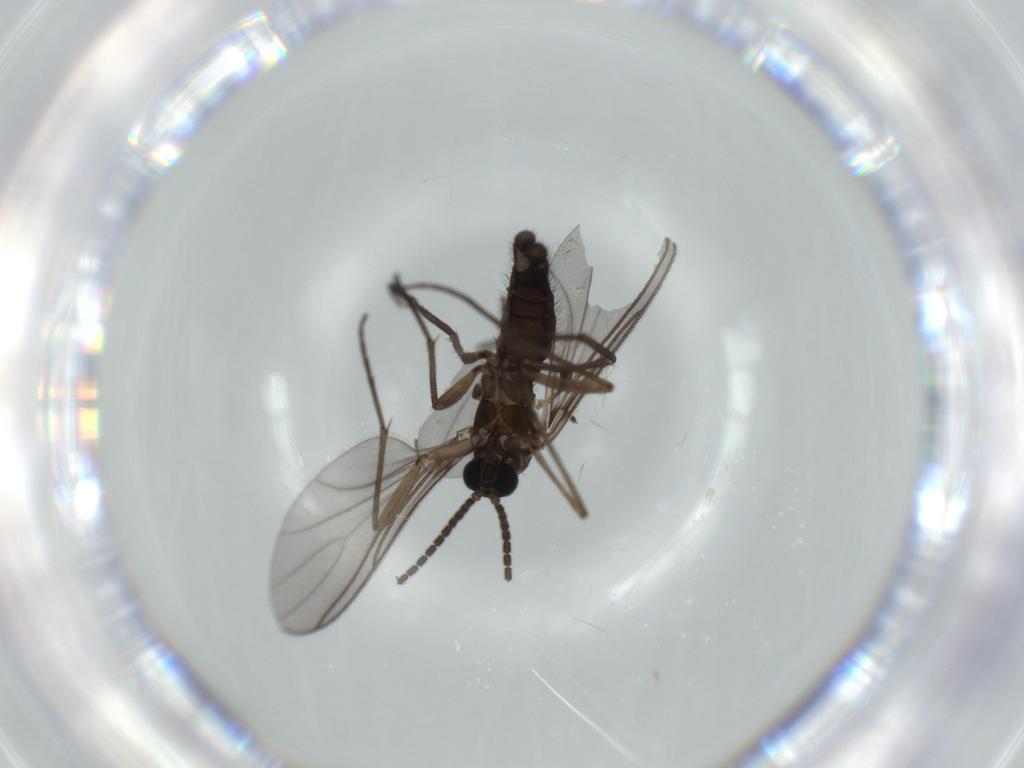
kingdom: Animalia
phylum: Arthropoda
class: Insecta
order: Diptera
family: Sciaridae
